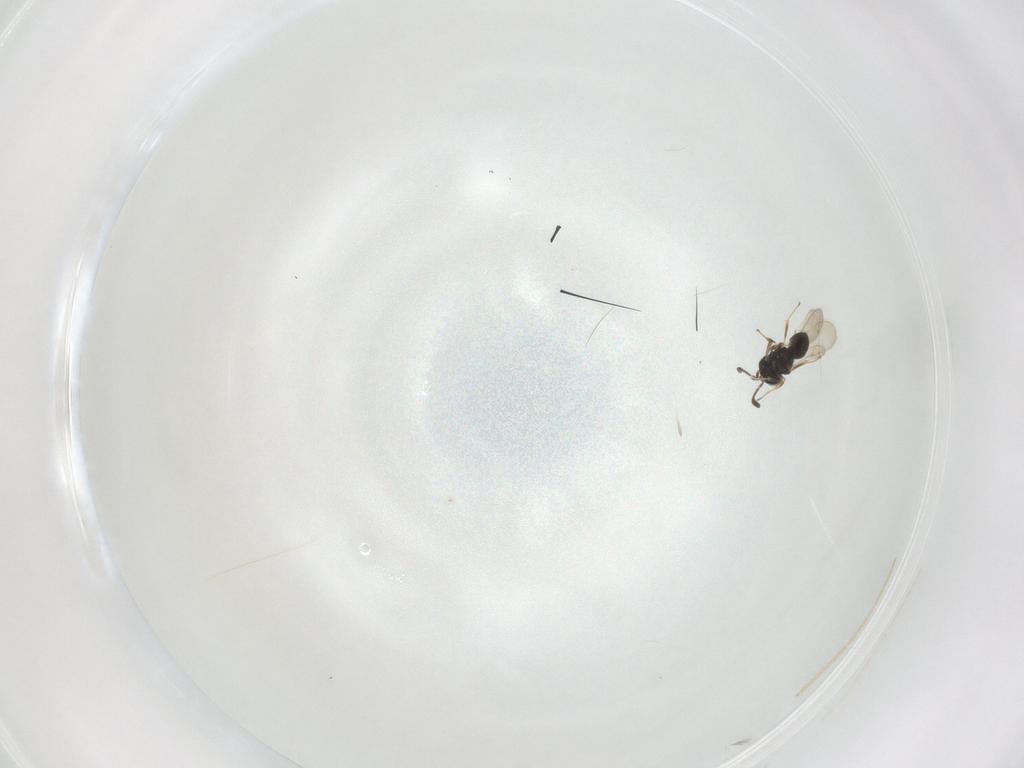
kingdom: Animalia
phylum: Arthropoda
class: Insecta
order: Hymenoptera
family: Scelionidae
